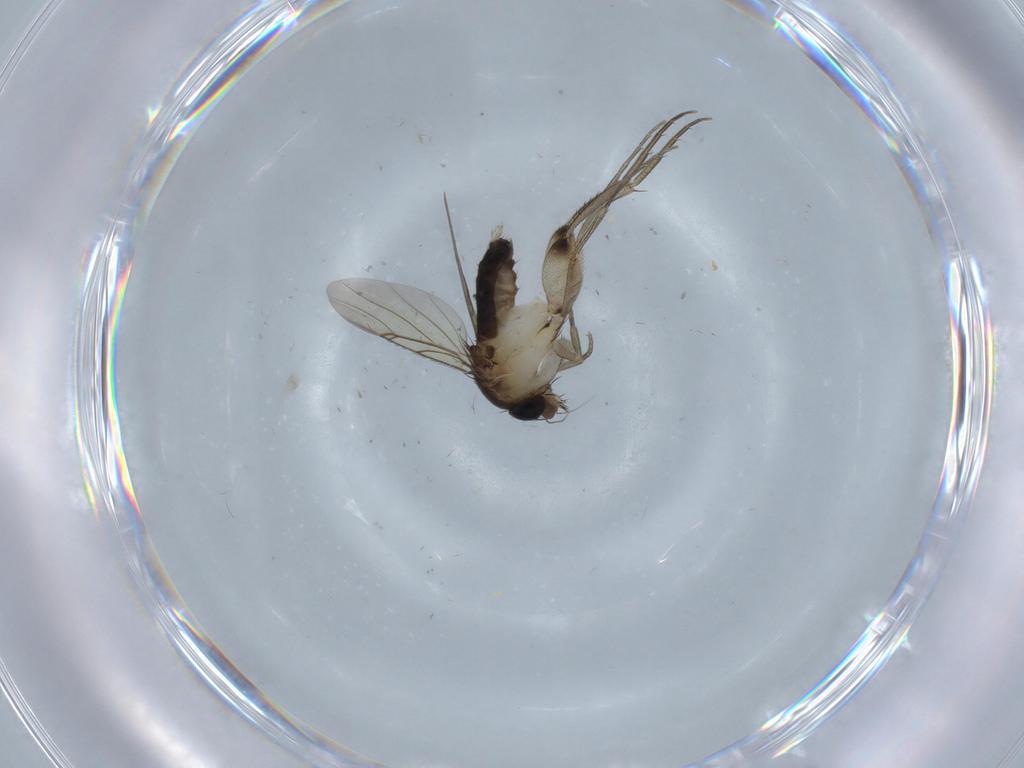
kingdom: Animalia
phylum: Arthropoda
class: Insecta
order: Diptera
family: Phoridae
